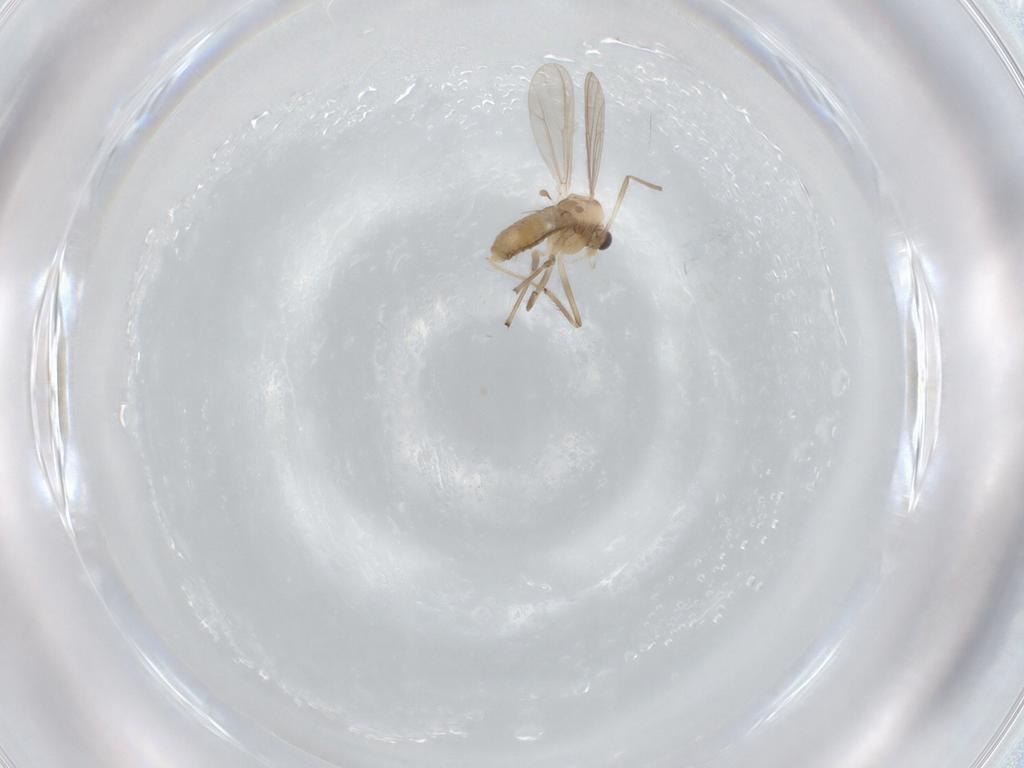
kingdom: Animalia
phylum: Arthropoda
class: Insecta
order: Diptera
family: Chironomidae
